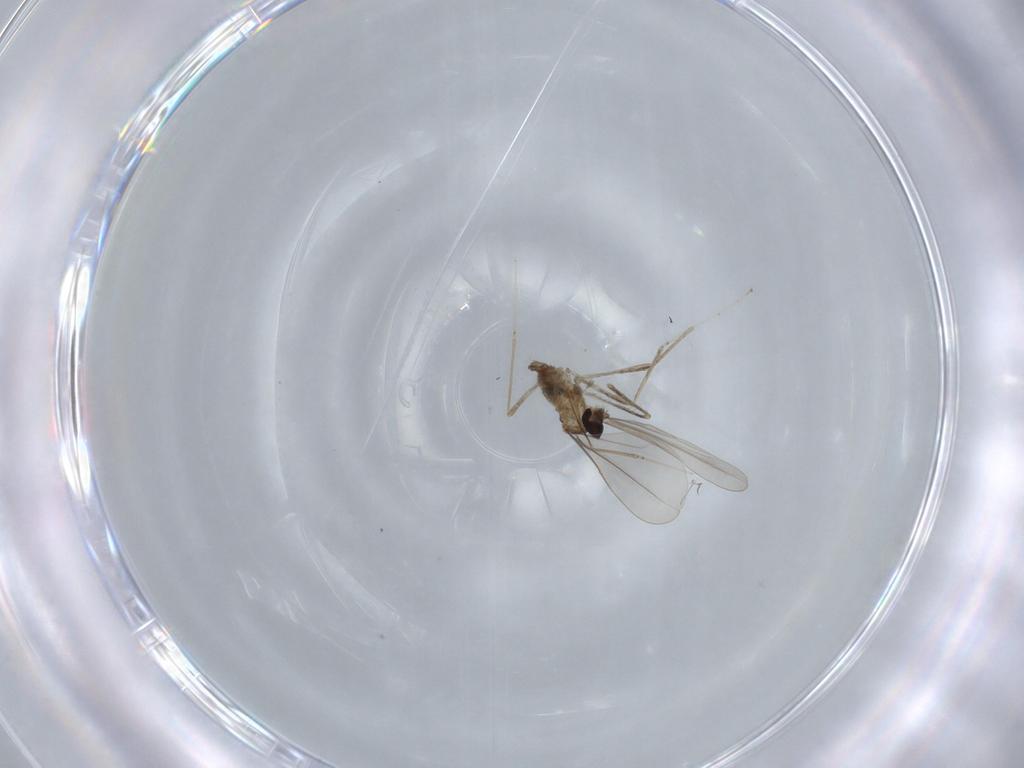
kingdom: Animalia
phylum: Arthropoda
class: Insecta
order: Diptera
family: Cecidomyiidae
